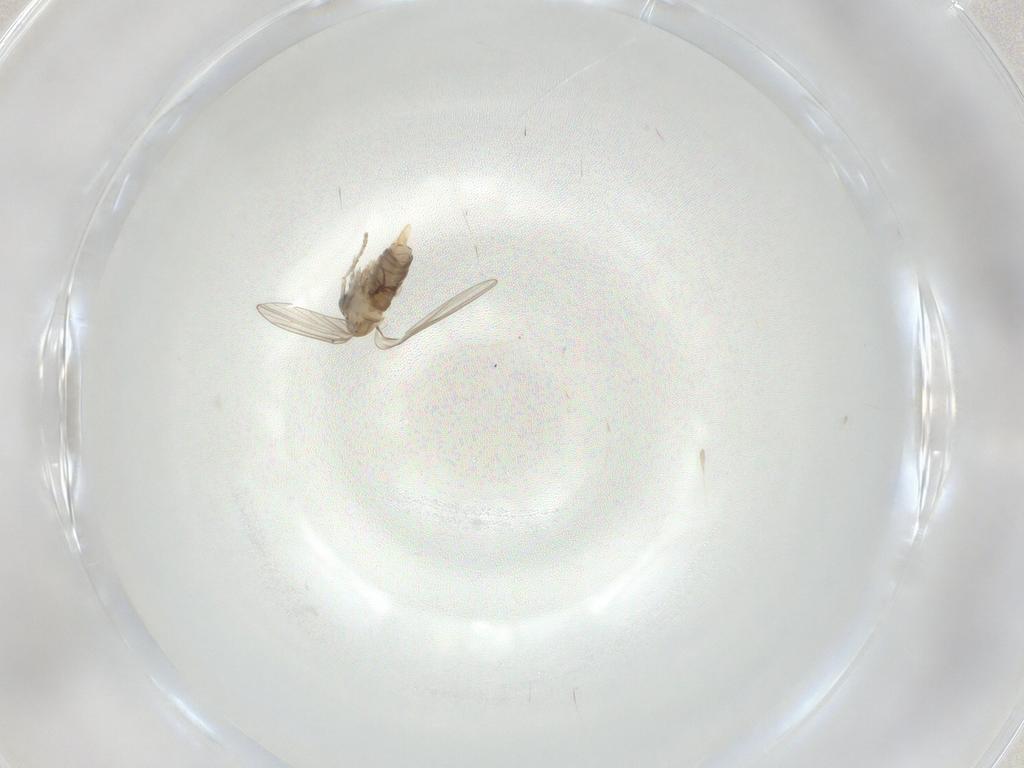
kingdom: Animalia
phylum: Arthropoda
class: Insecta
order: Diptera
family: Psychodidae
